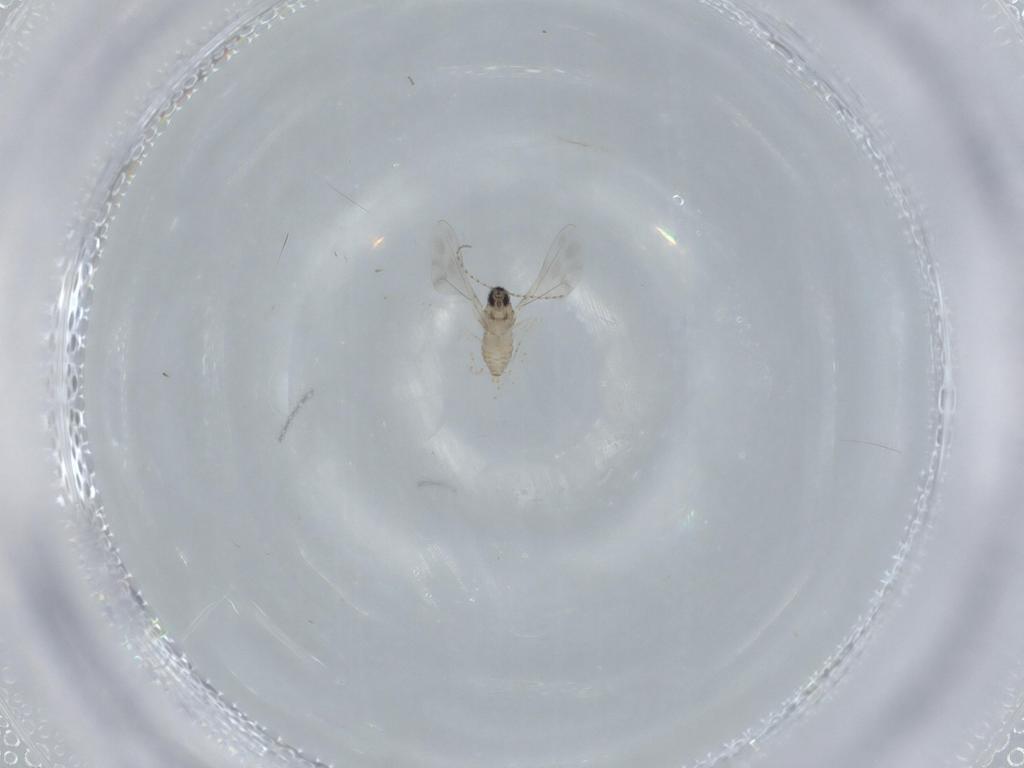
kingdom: Animalia
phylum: Arthropoda
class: Insecta
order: Diptera
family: Cecidomyiidae
